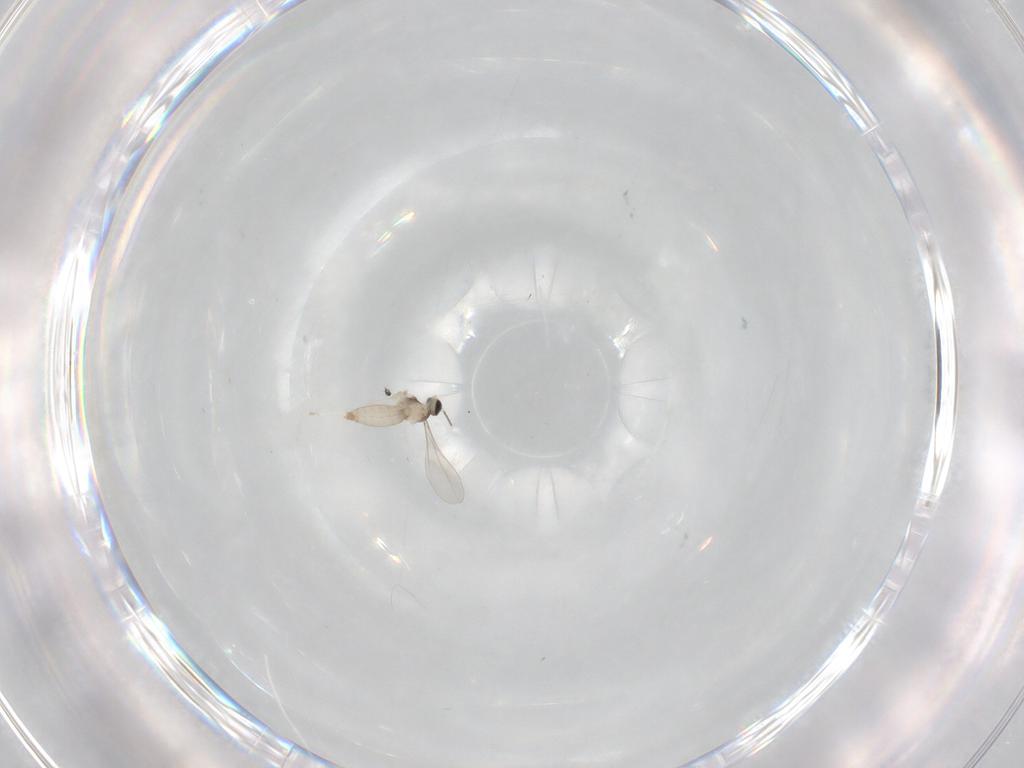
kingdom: Animalia
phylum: Arthropoda
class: Insecta
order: Diptera
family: Cecidomyiidae
